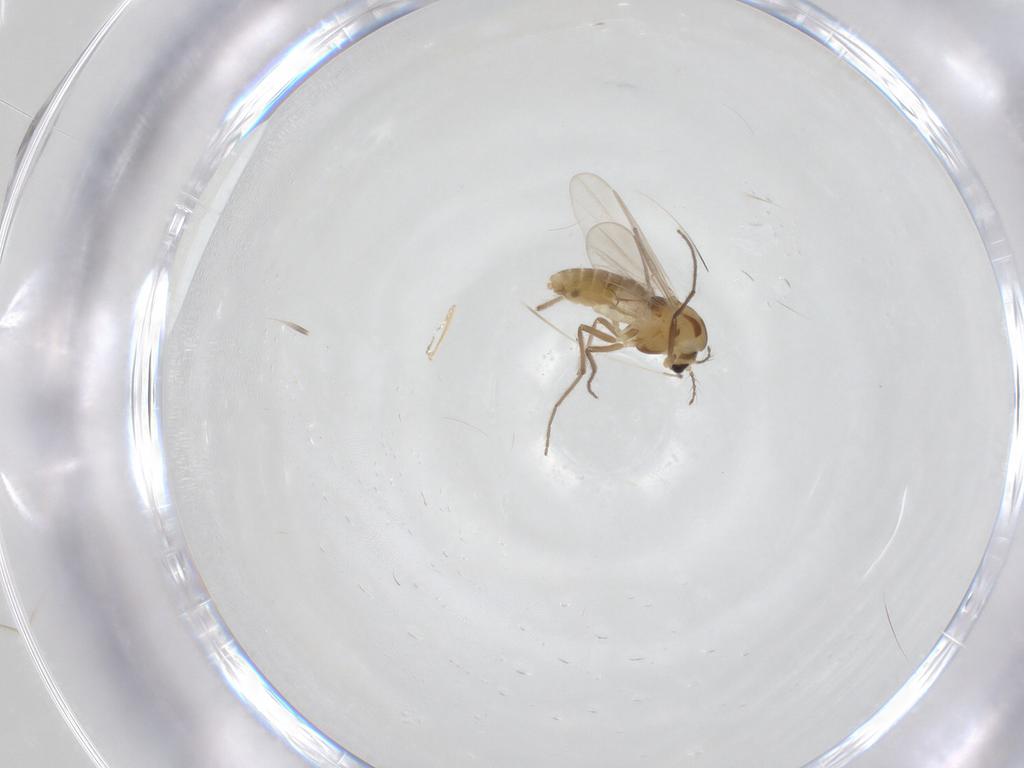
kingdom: Animalia
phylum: Arthropoda
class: Insecta
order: Diptera
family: Chironomidae
